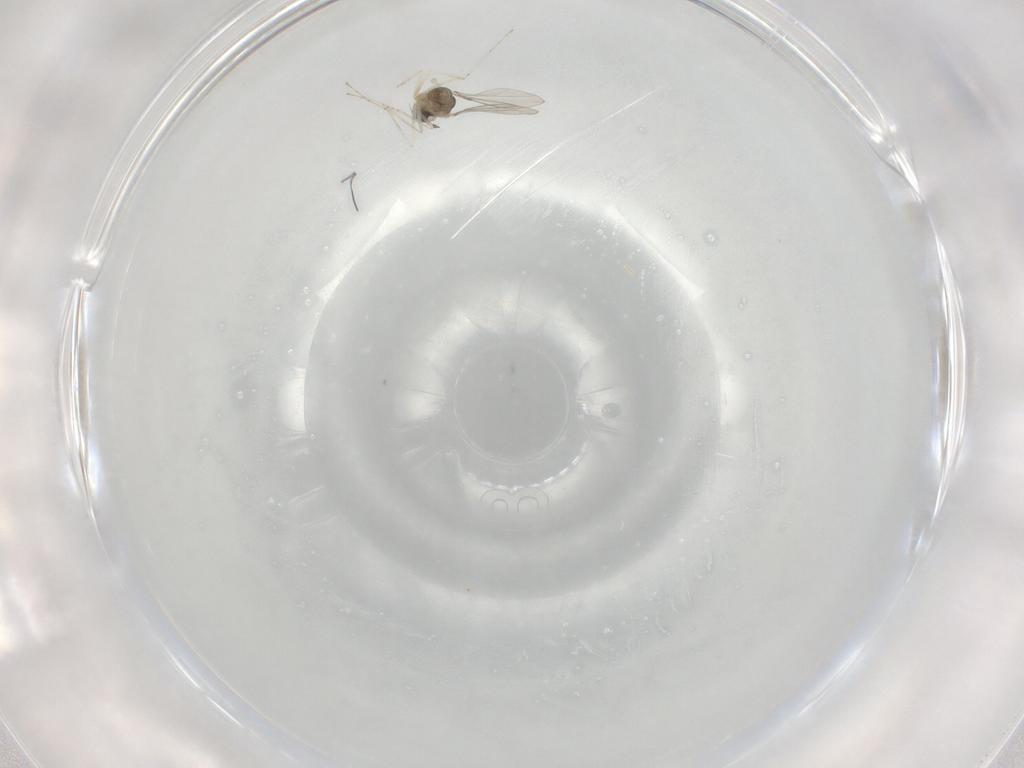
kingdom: Animalia
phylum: Arthropoda
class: Insecta
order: Diptera
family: Cecidomyiidae
